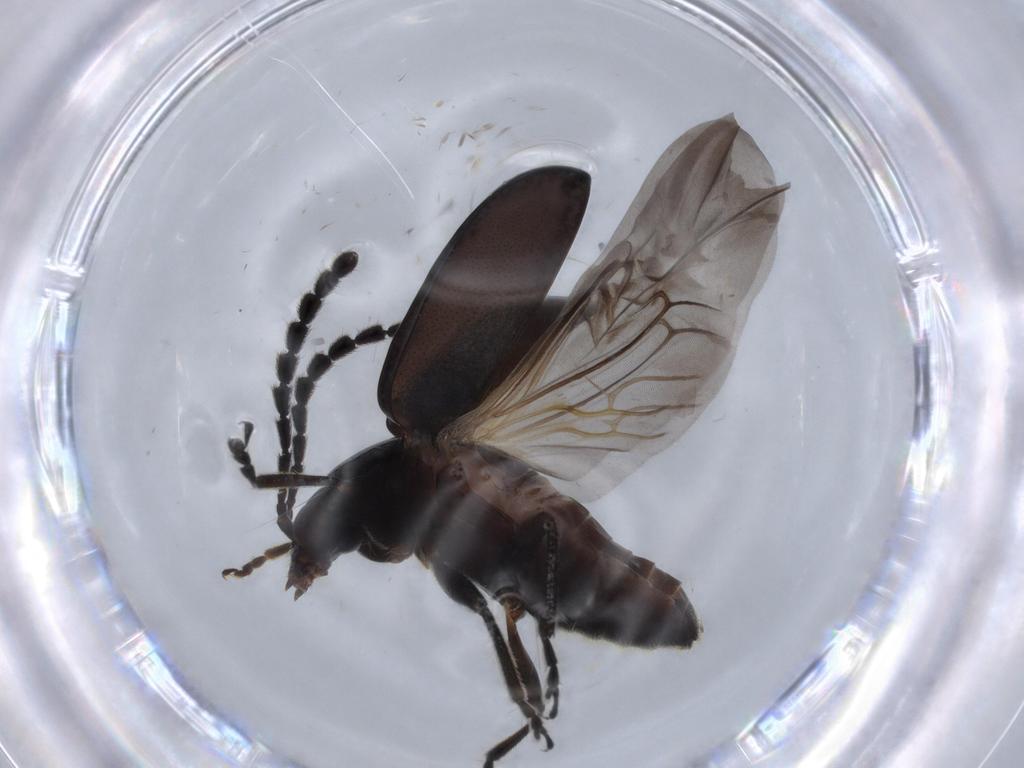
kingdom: Animalia
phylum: Arthropoda
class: Insecta
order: Coleoptera
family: Chrysomelidae
